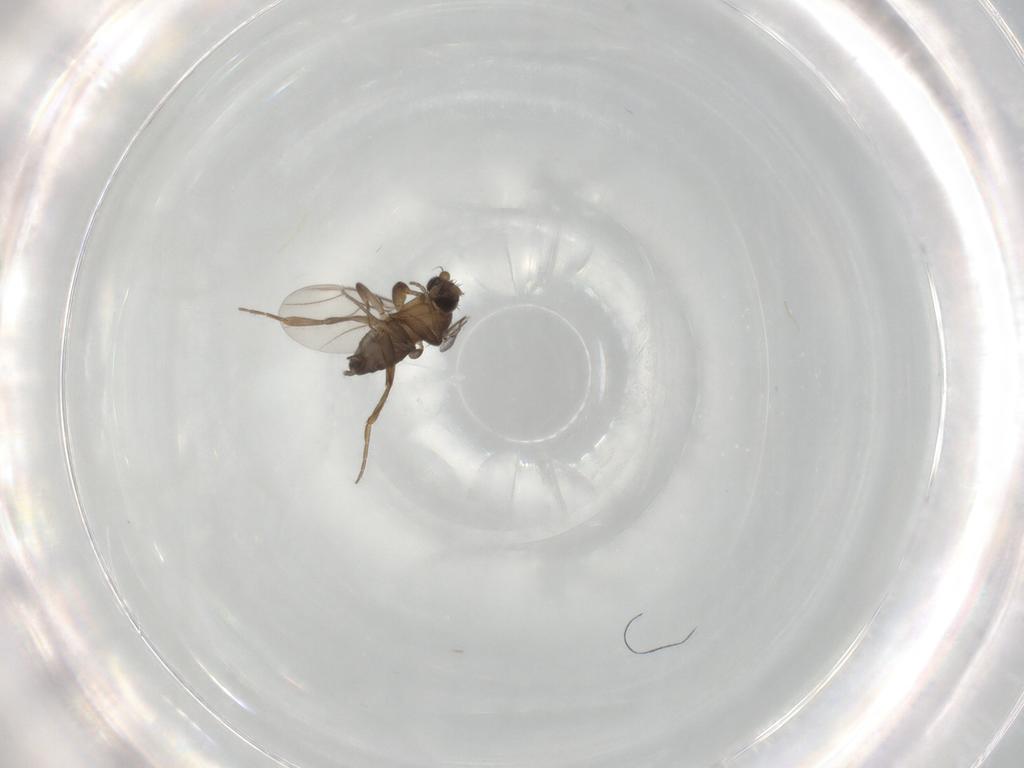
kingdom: Animalia
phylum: Arthropoda
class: Insecta
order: Diptera
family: Phoridae
